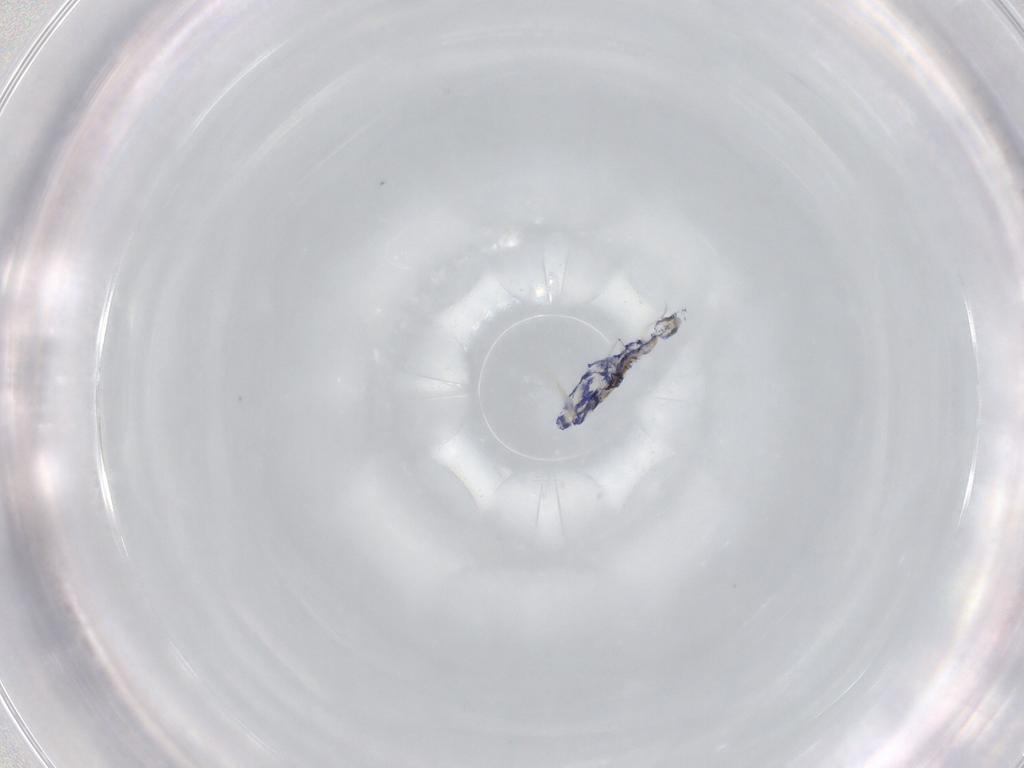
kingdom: Animalia
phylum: Arthropoda
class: Collembola
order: Entomobryomorpha
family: Entomobryidae
